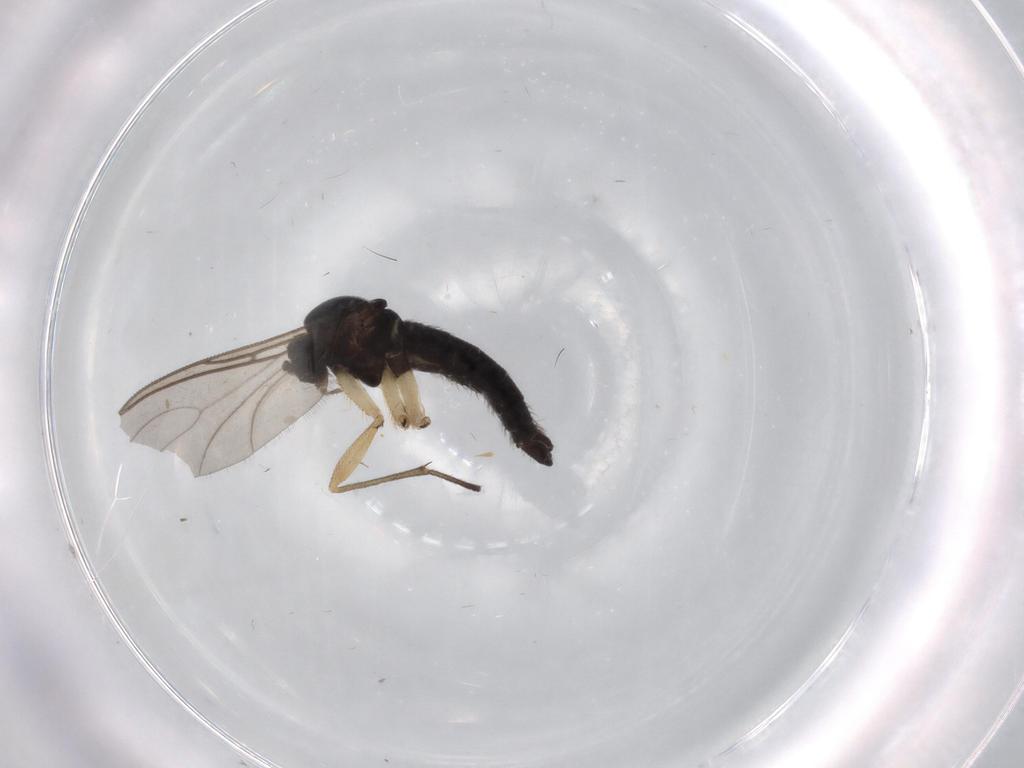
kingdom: Animalia
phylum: Arthropoda
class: Insecta
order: Diptera
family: Sciaridae
